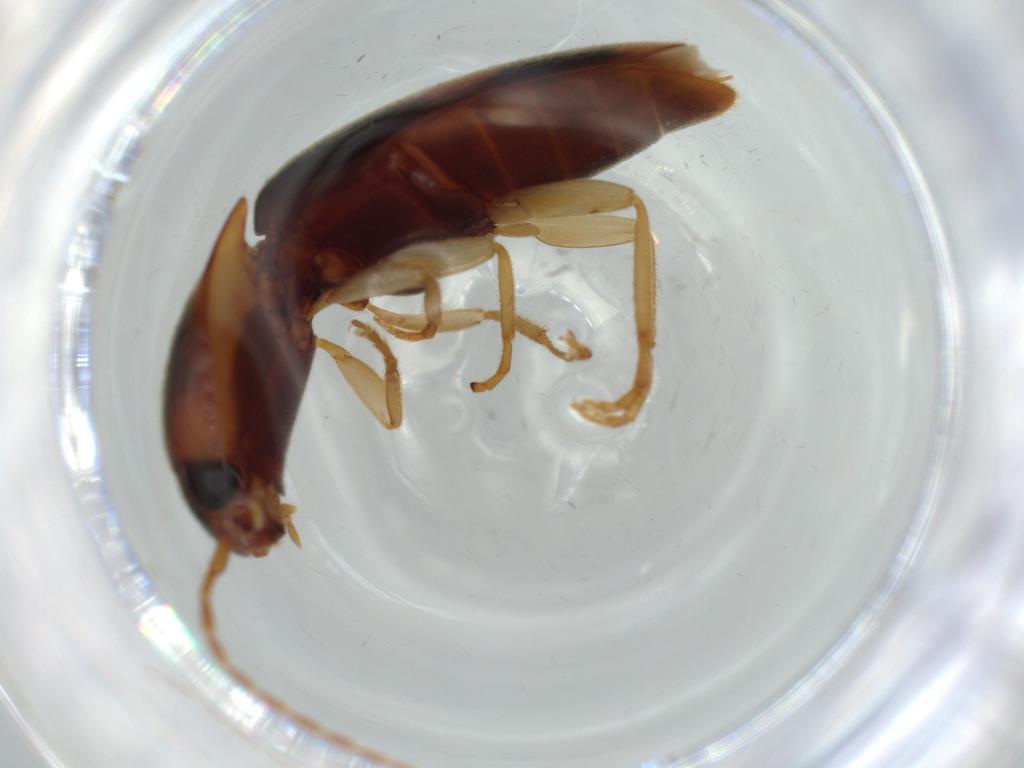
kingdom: Animalia
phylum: Arthropoda
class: Insecta
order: Coleoptera
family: Elateridae
